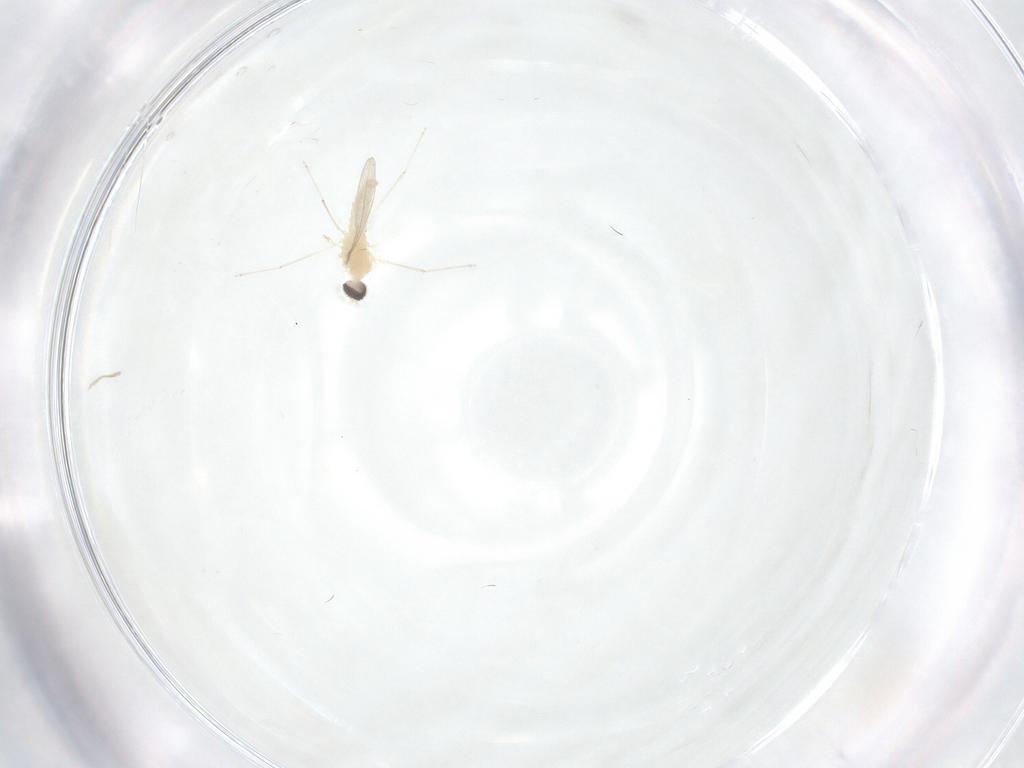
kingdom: Animalia
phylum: Arthropoda
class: Insecta
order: Diptera
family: Cecidomyiidae
